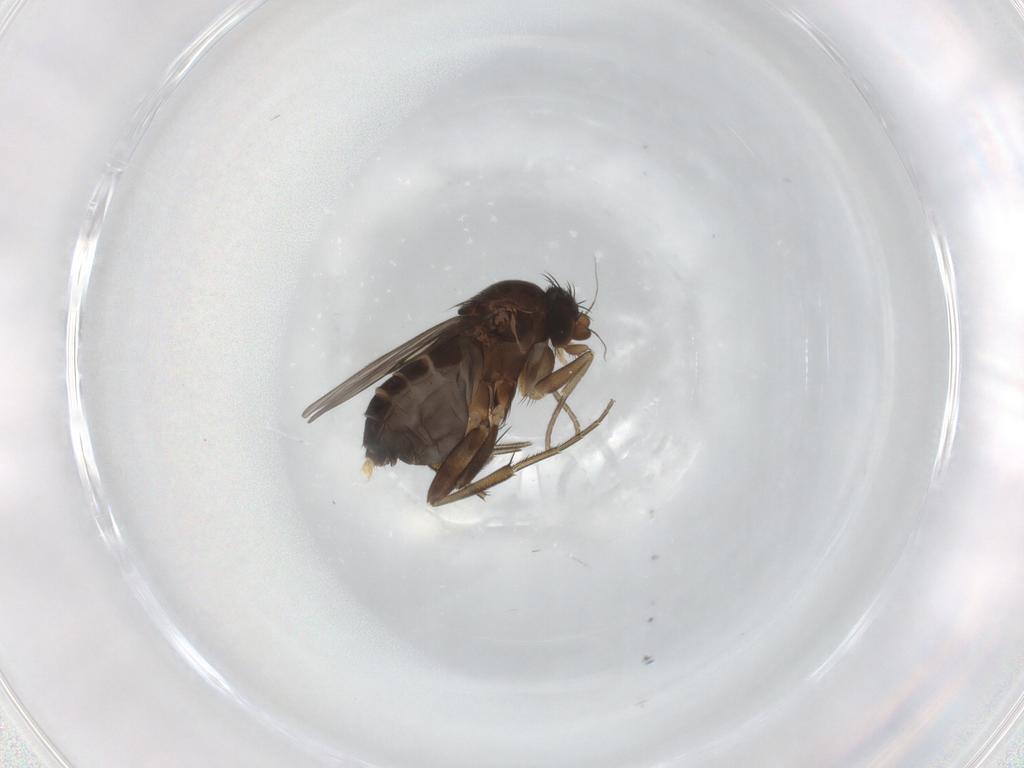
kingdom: Animalia
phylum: Arthropoda
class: Insecta
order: Diptera
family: Phoridae
